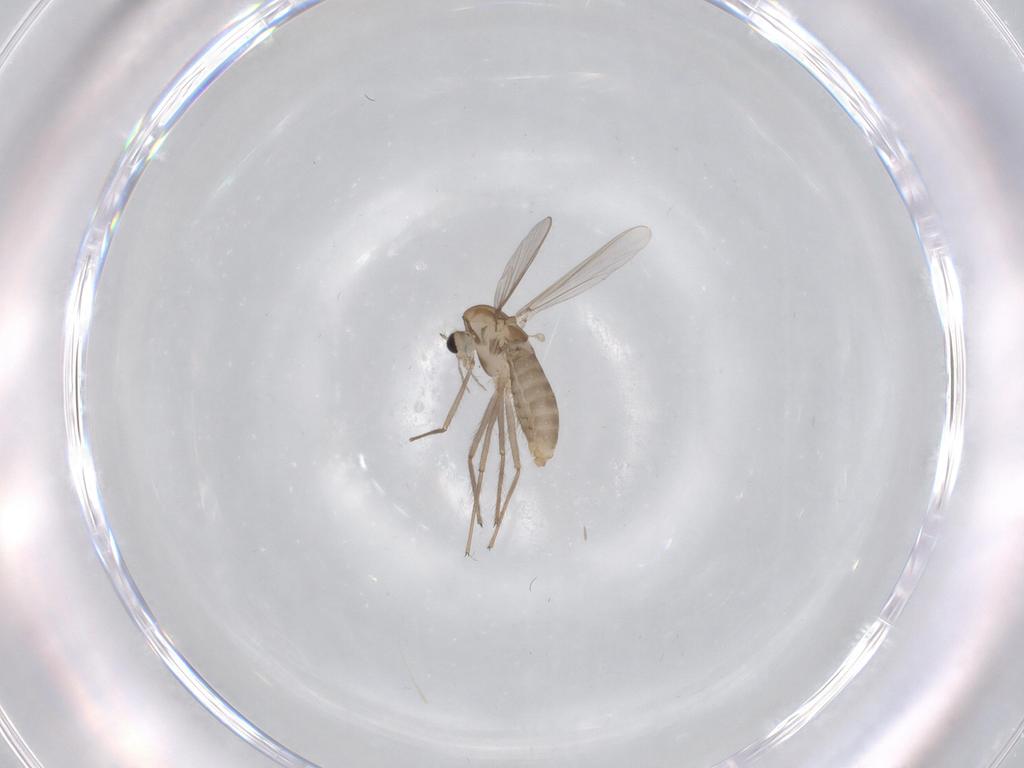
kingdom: Animalia
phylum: Arthropoda
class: Insecta
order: Diptera
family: Chironomidae
